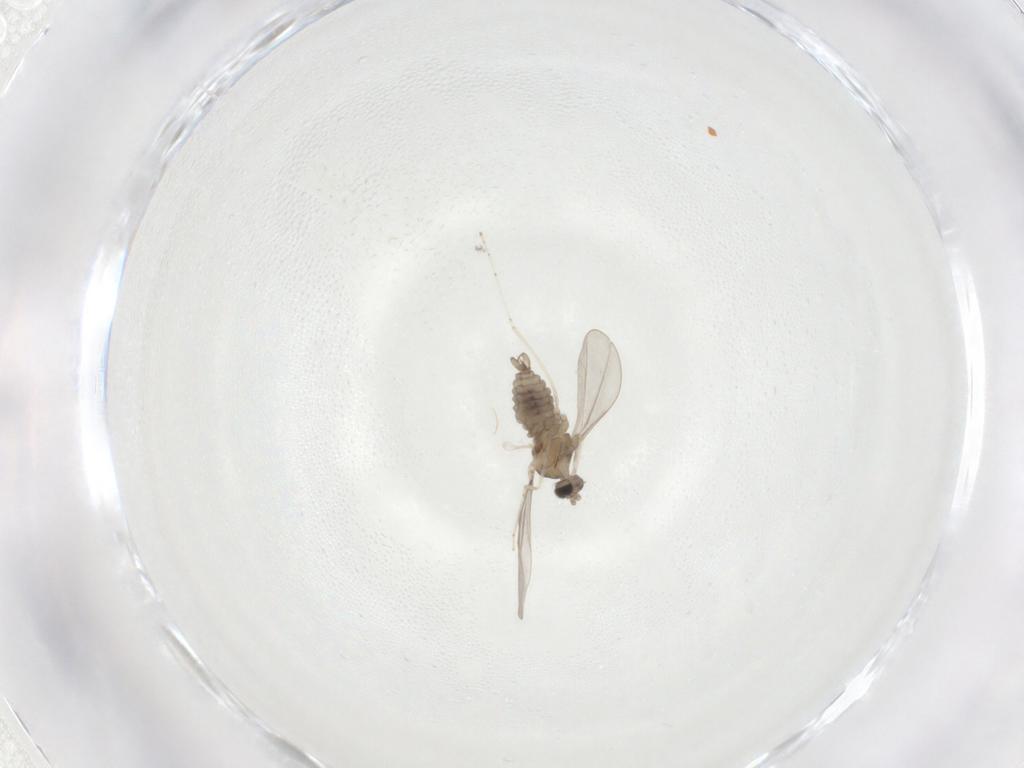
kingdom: Animalia
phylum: Arthropoda
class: Insecta
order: Diptera
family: Cecidomyiidae
